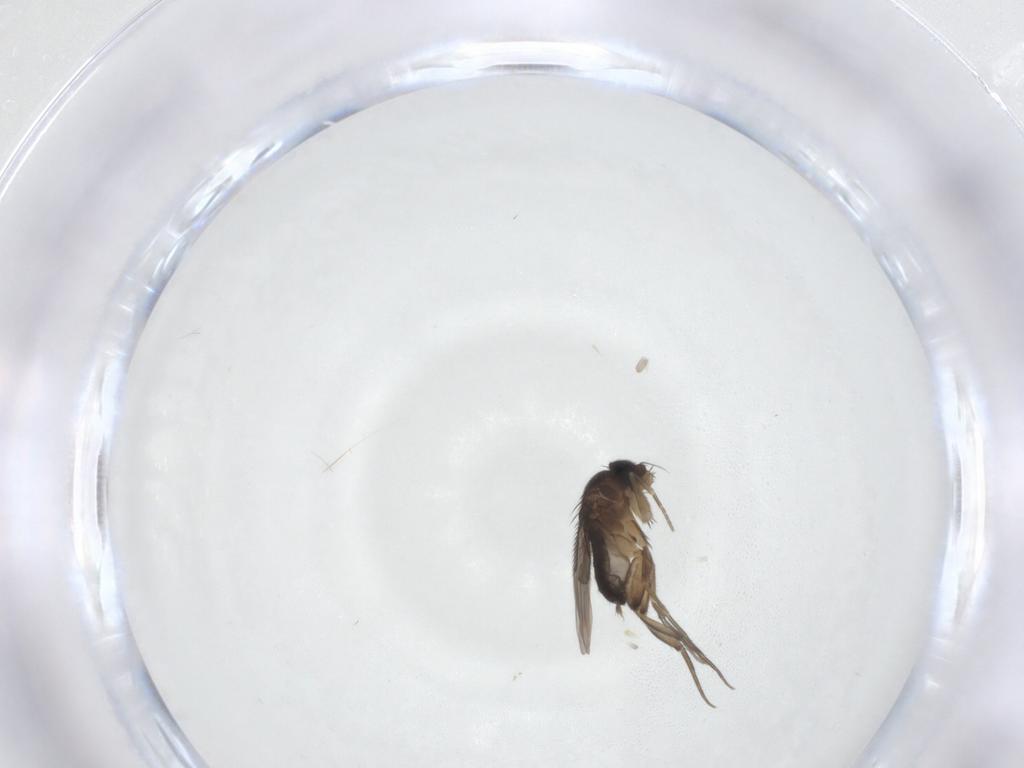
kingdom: Animalia
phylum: Arthropoda
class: Insecta
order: Diptera
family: Phoridae
